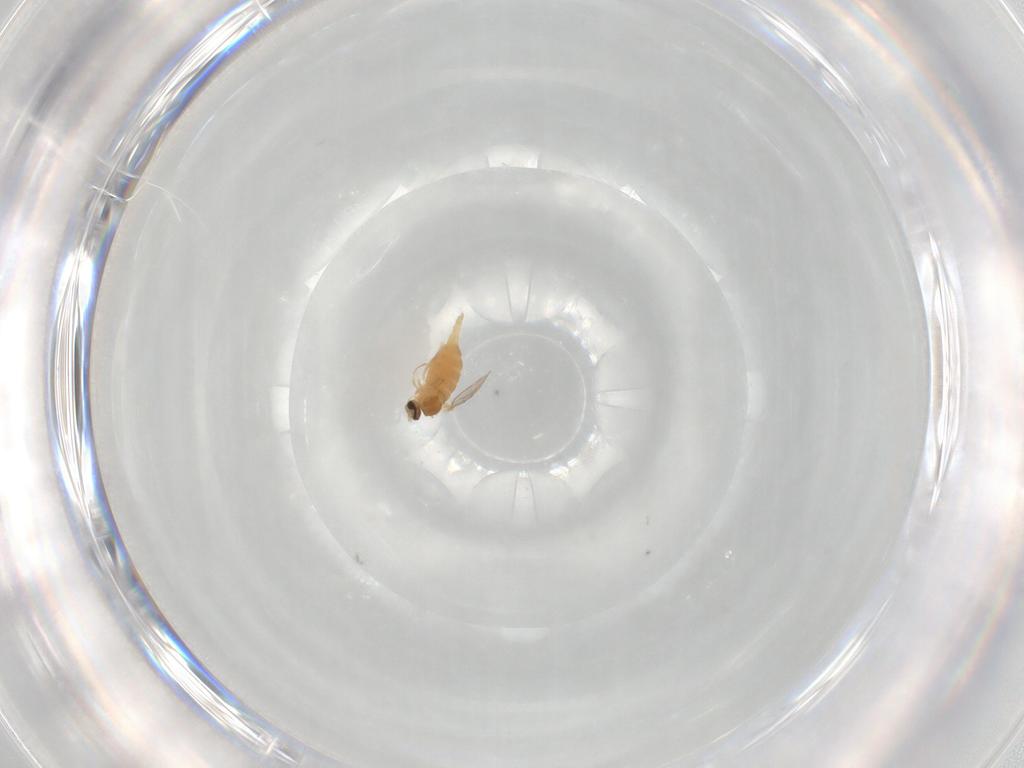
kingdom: Animalia
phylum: Arthropoda
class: Insecta
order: Diptera
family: Cecidomyiidae
